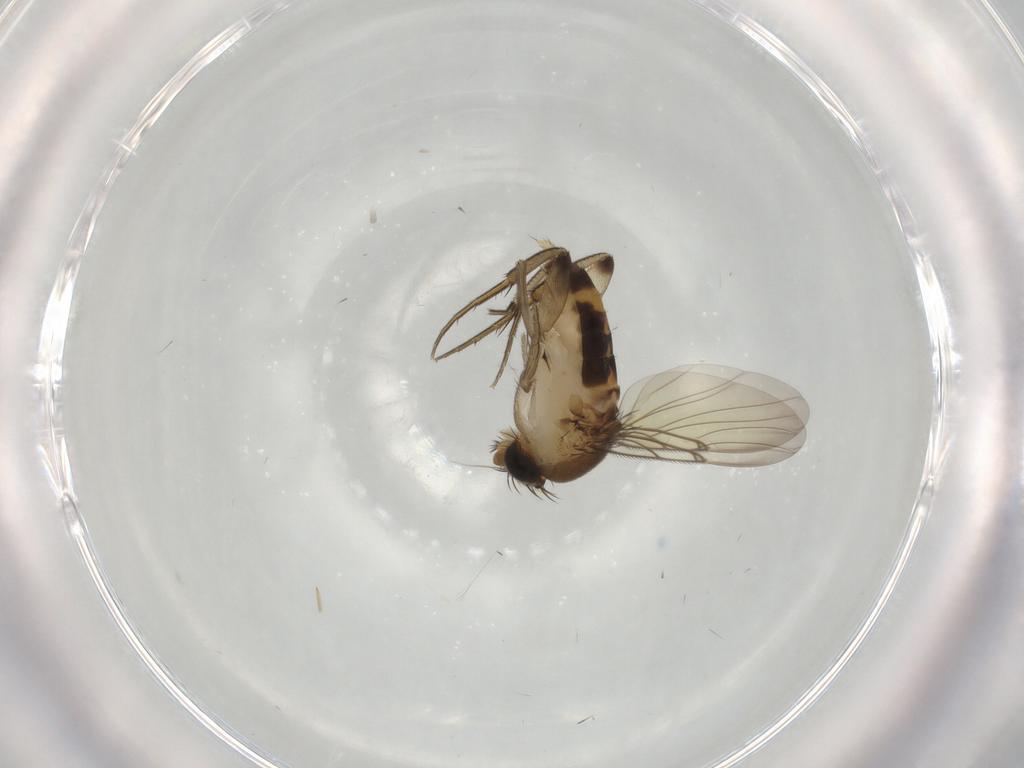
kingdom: Animalia
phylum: Arthropoda
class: Insecta
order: Diptera
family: Phoridae
